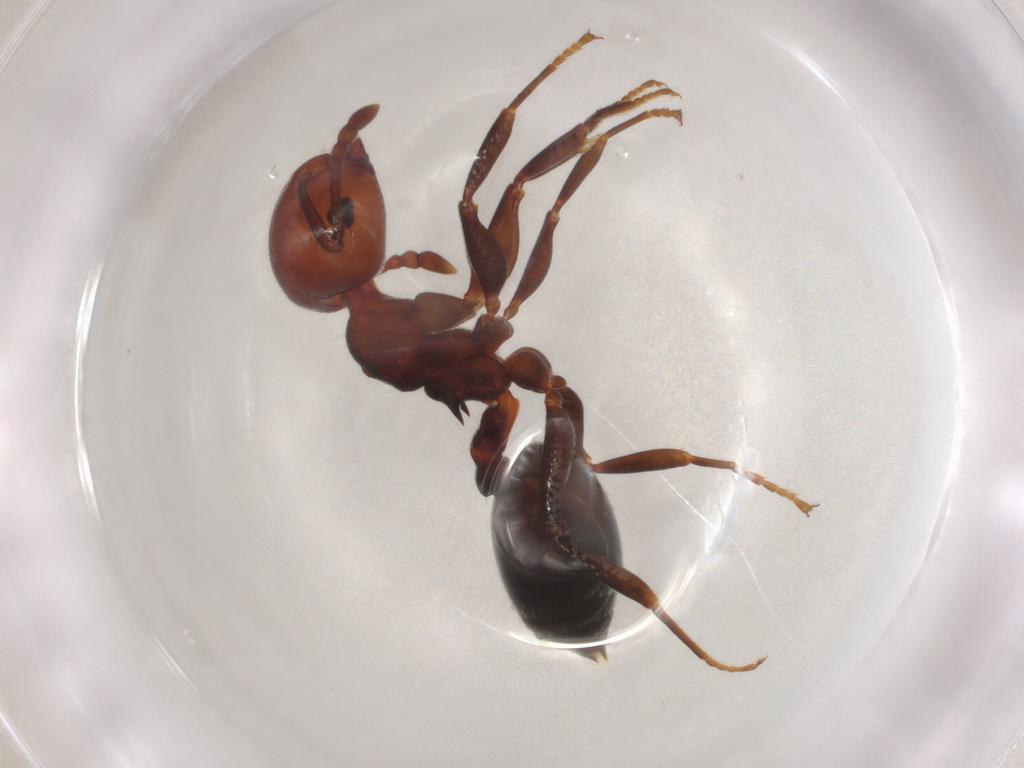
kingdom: Animalia
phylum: Arthropoda
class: Insecta
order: Hymenoptera
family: Formicidae
